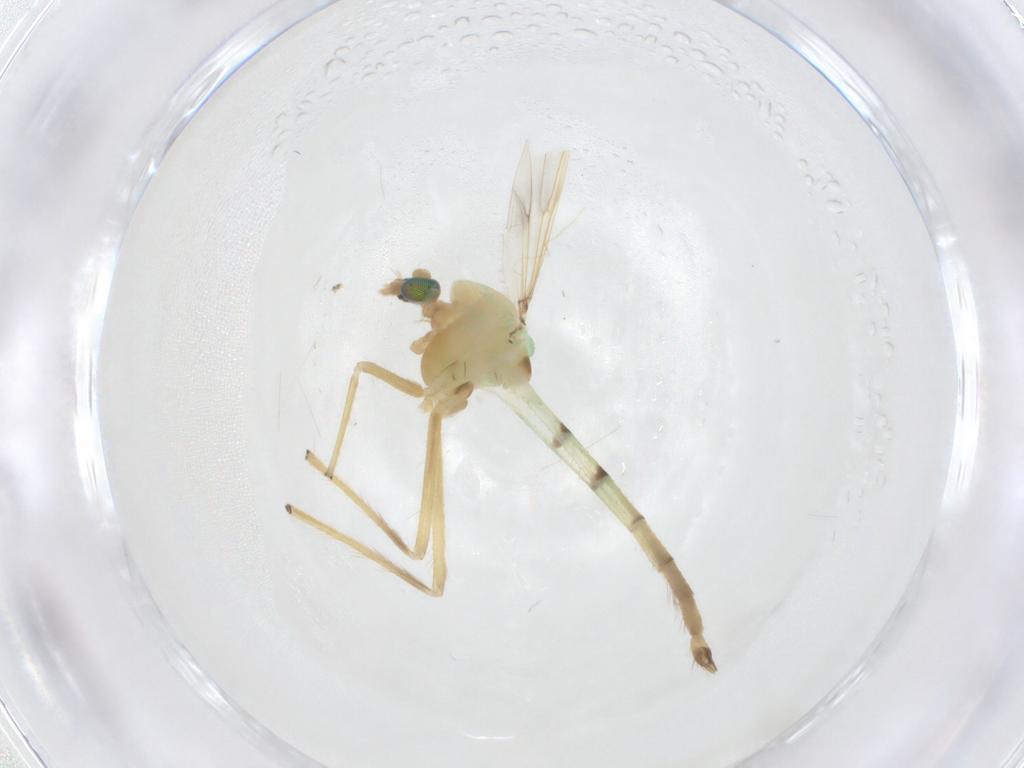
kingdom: Animalia
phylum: Arthropoda
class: Insecta
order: Diptera
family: Chironomidae
